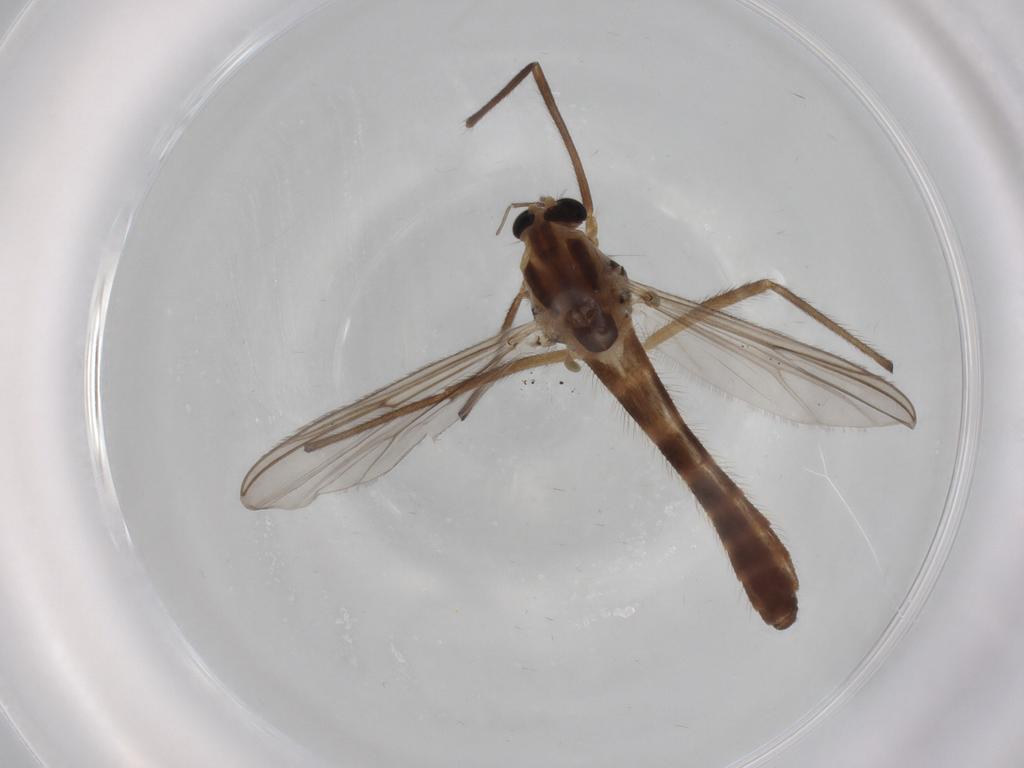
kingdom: Animalia
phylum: Arthropoda
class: Insecta
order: Diptera
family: Chironomidae
